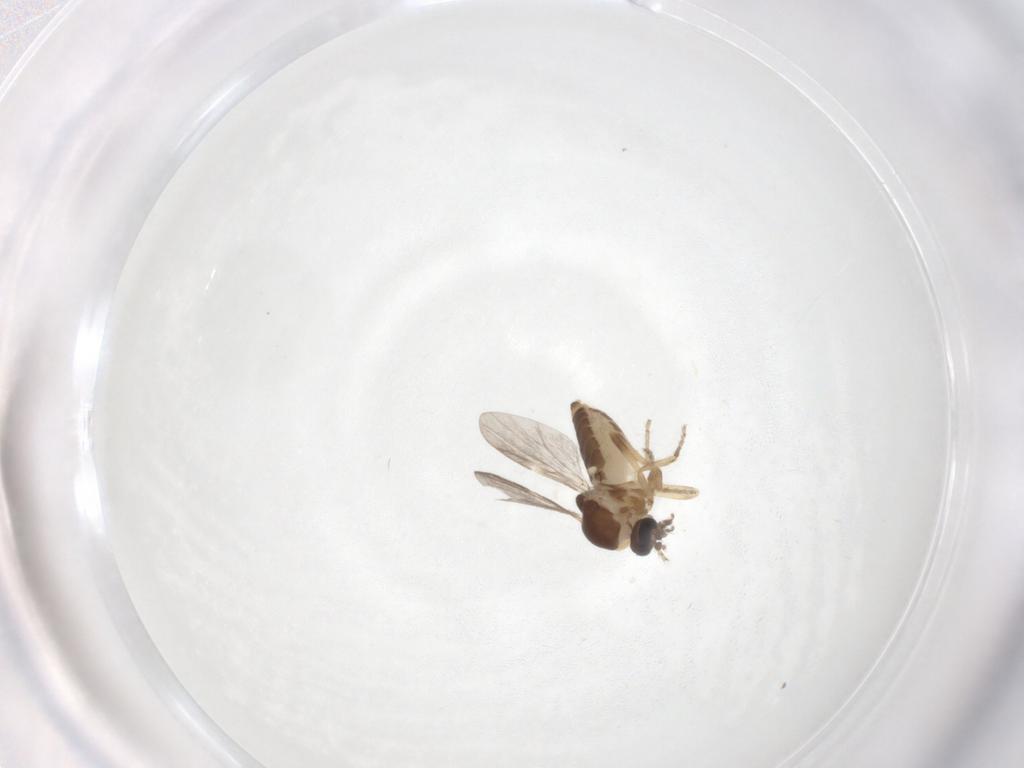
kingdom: Animalia
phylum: Arthropoda
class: Insecta
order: Diptera
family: Cecidomyiidae
